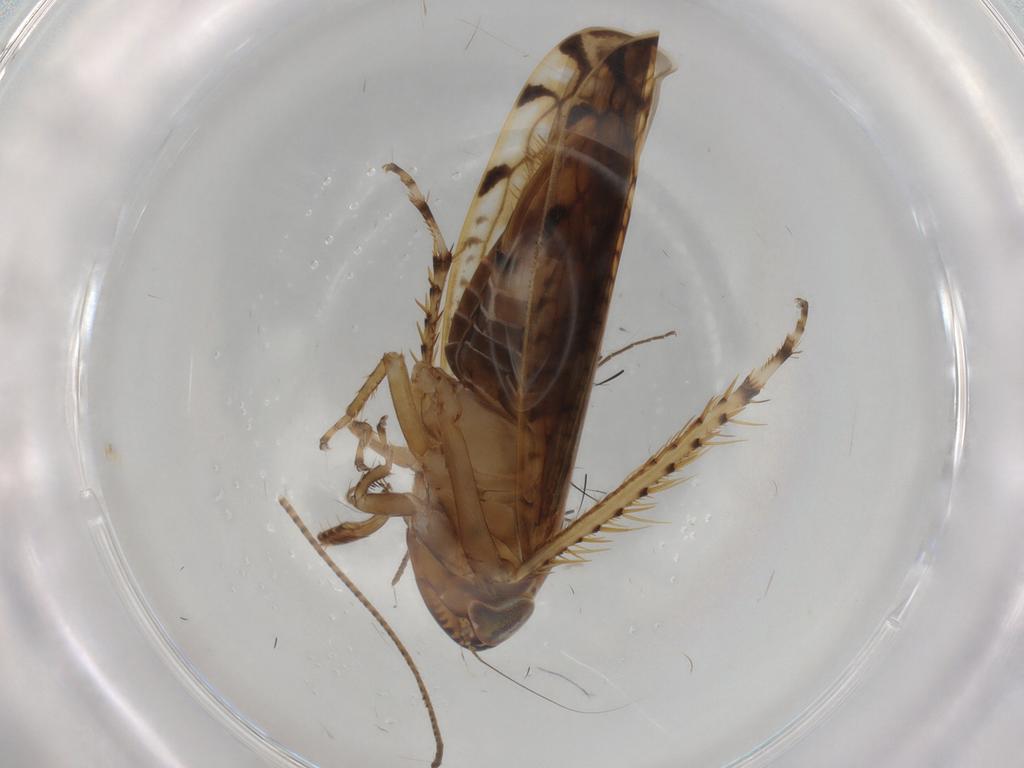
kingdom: Animalia
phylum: Arthropoda
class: Insecta
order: Hemiptera
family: Cicadellidae
